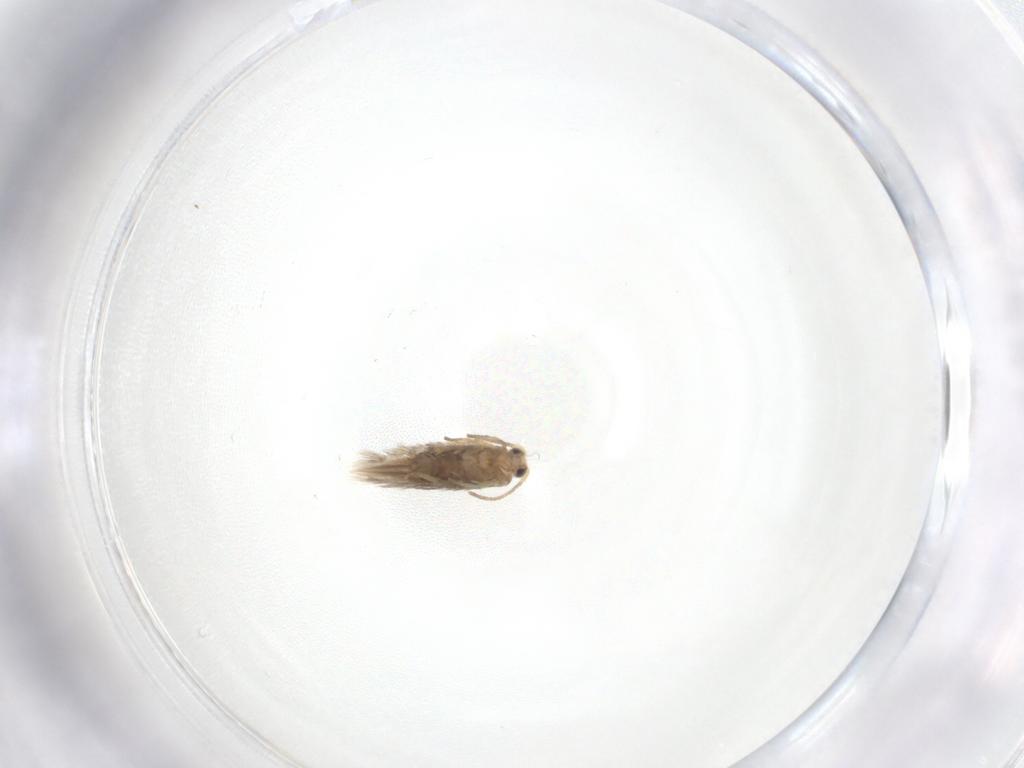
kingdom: Animalia
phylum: Arthropoda
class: Insecta
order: Lepidoptera
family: Nepticulidae
